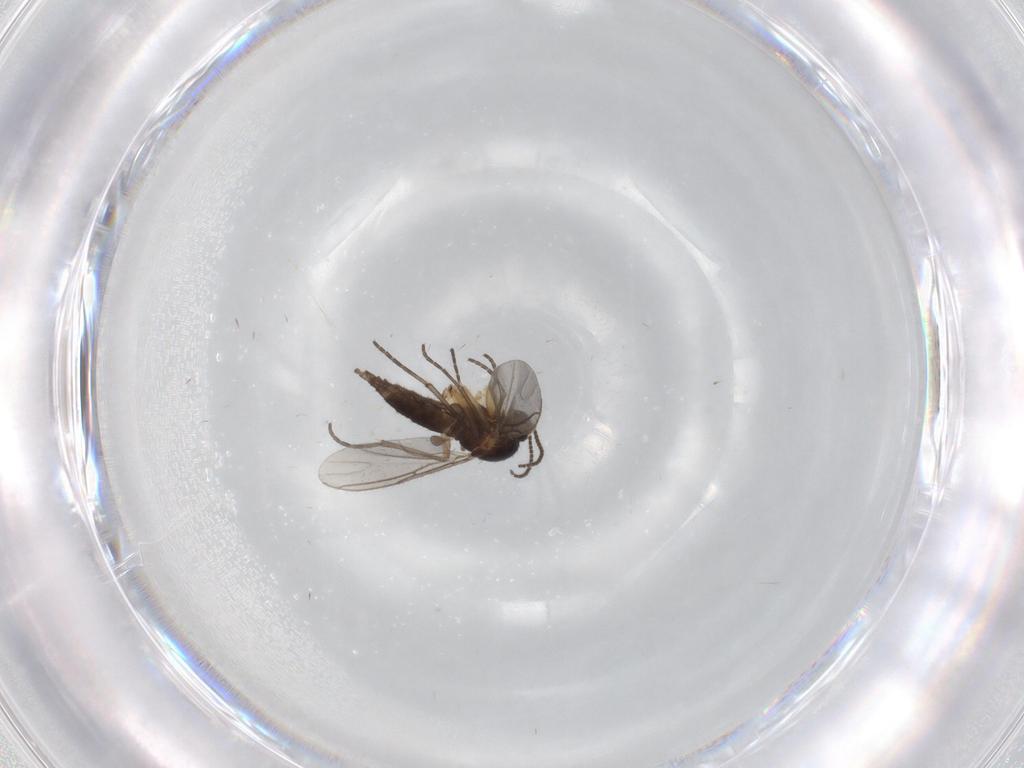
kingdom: Animalia
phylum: Arthropoda
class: Insecta
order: Diptera
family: Sciaridae
